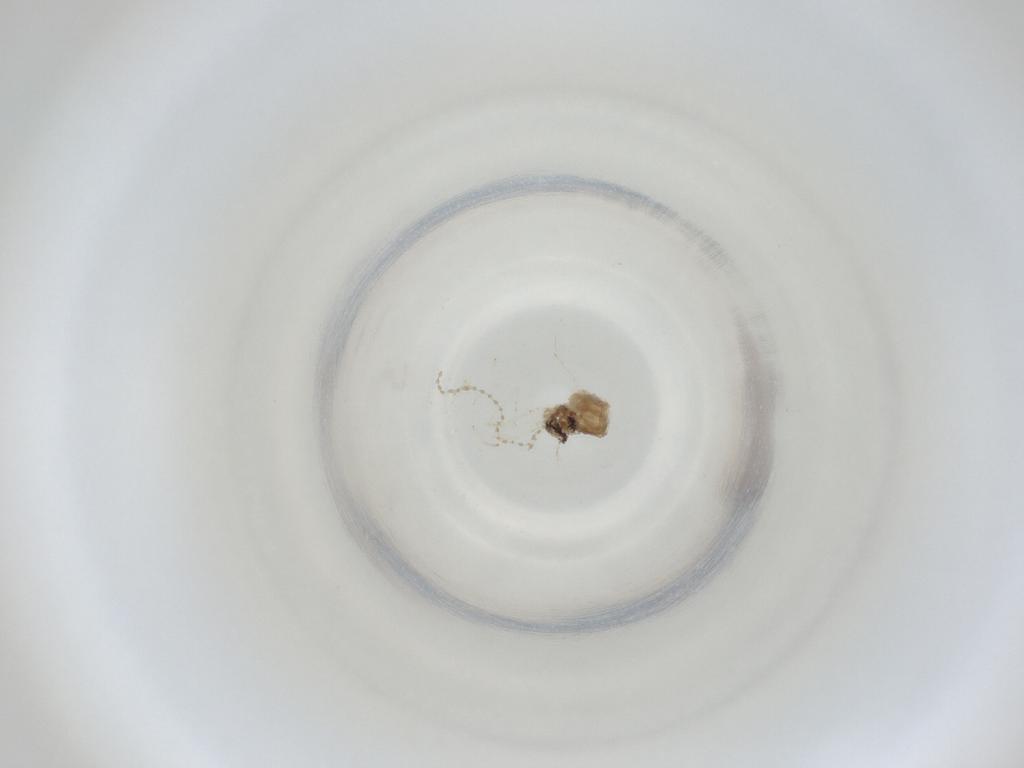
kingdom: Animalia
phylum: Arthropoda
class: Insecta
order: Diptera
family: Cecidomyiidae
